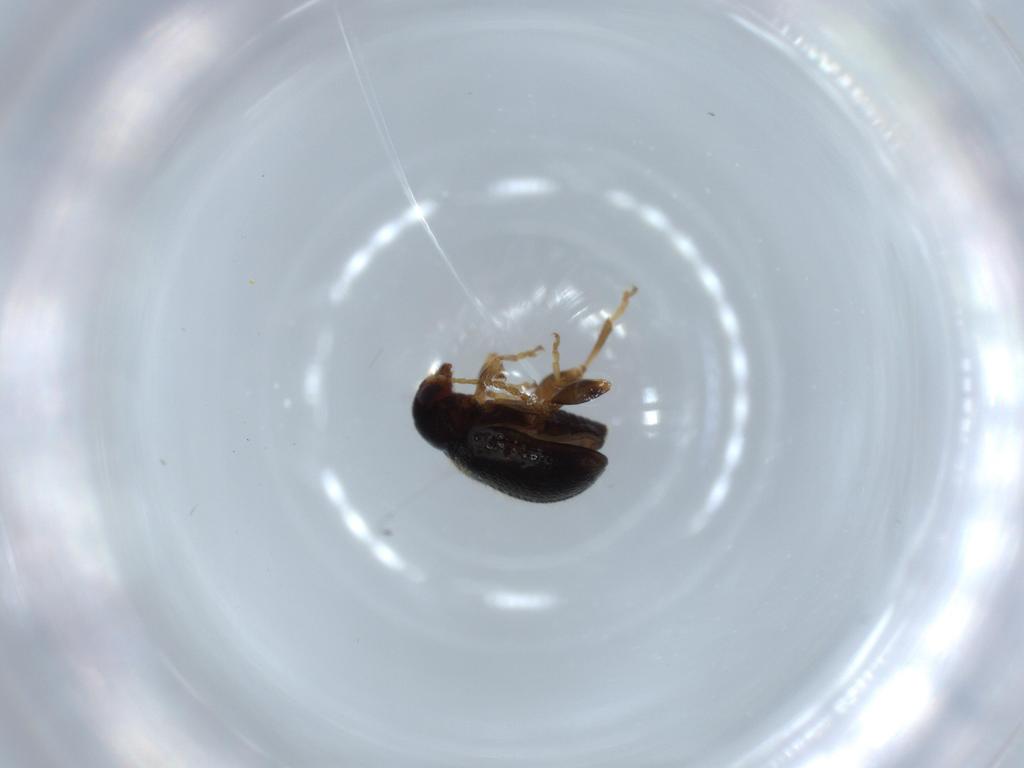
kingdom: Animalia
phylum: Arthropoda
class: Insecta
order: Coleoptera
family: Chrysomelidae
